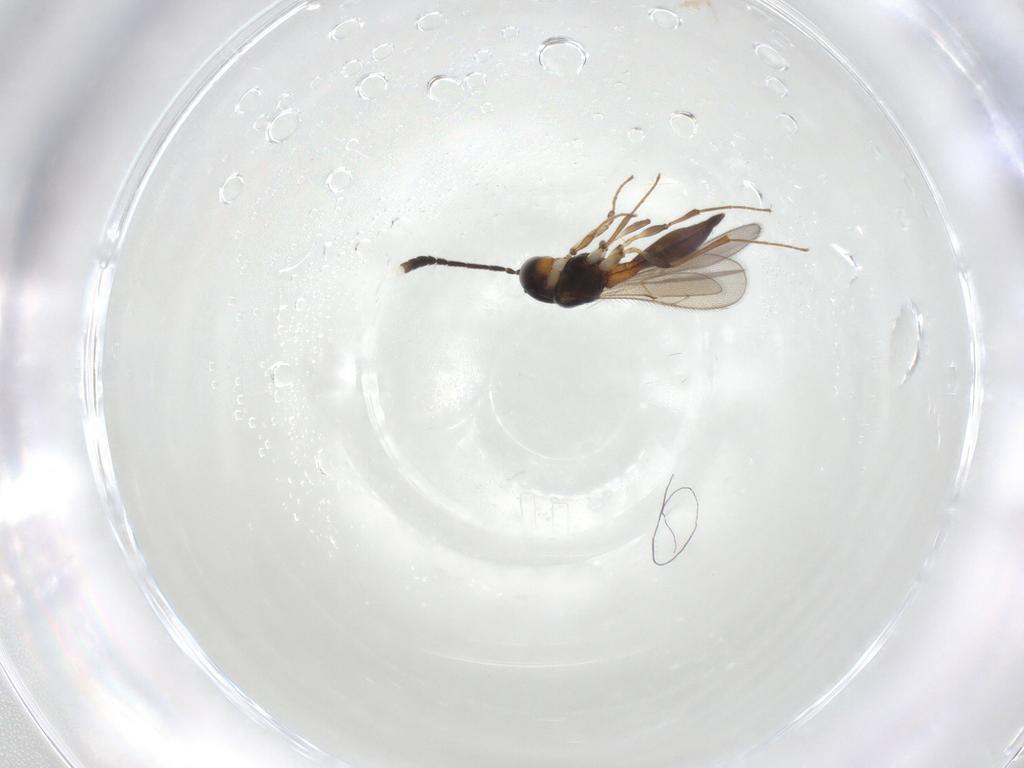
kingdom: Animalia
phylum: Arthropoda
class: Insecta
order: Hymenoptera
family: Scelionidae
